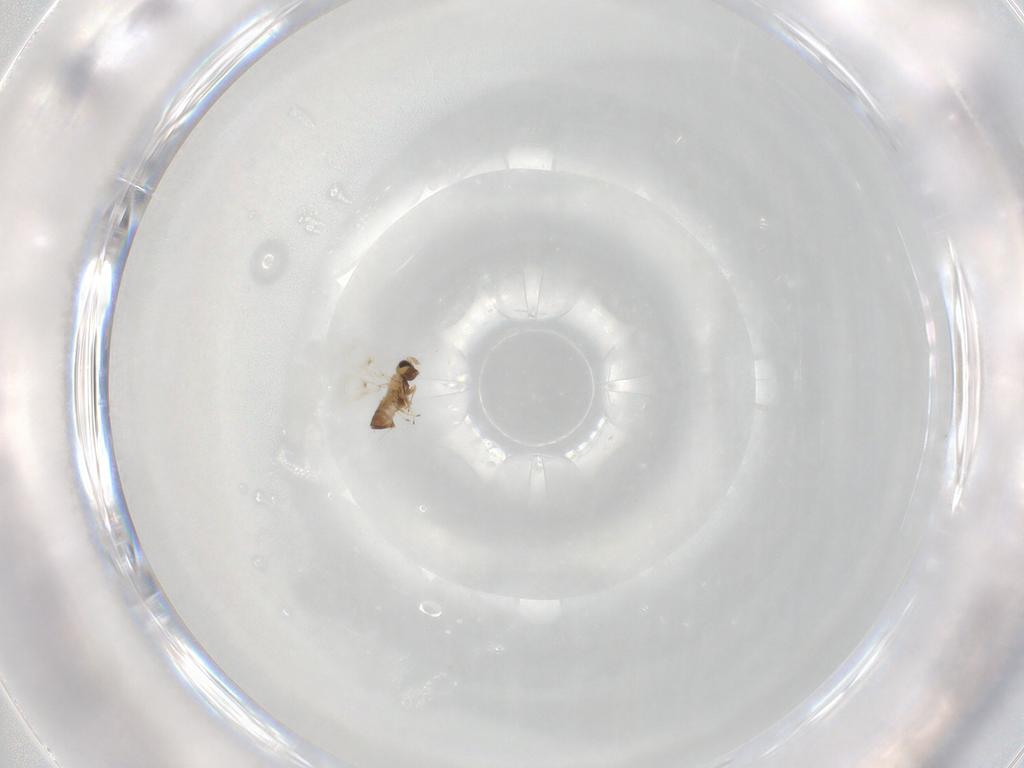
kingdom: Animalia
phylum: Arthropoda
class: Insecta
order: Hymenoptera
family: Trichogrammatidae
